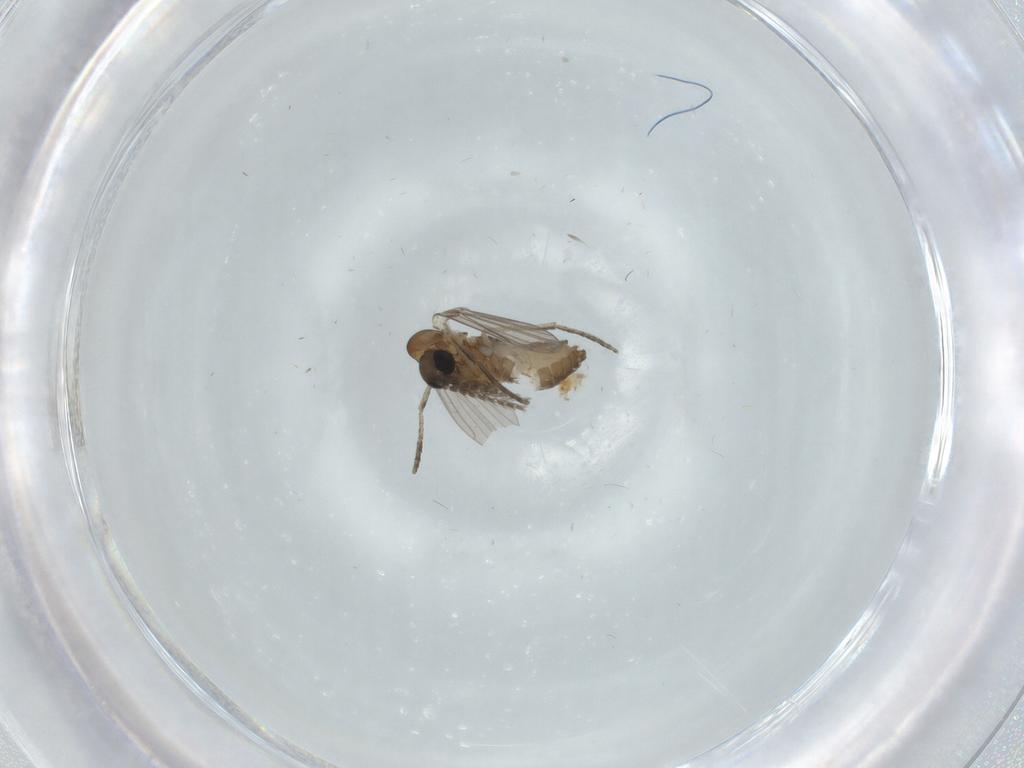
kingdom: Animalia
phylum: Arthropoda
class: Insecta
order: Diptera
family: Psychodidae
